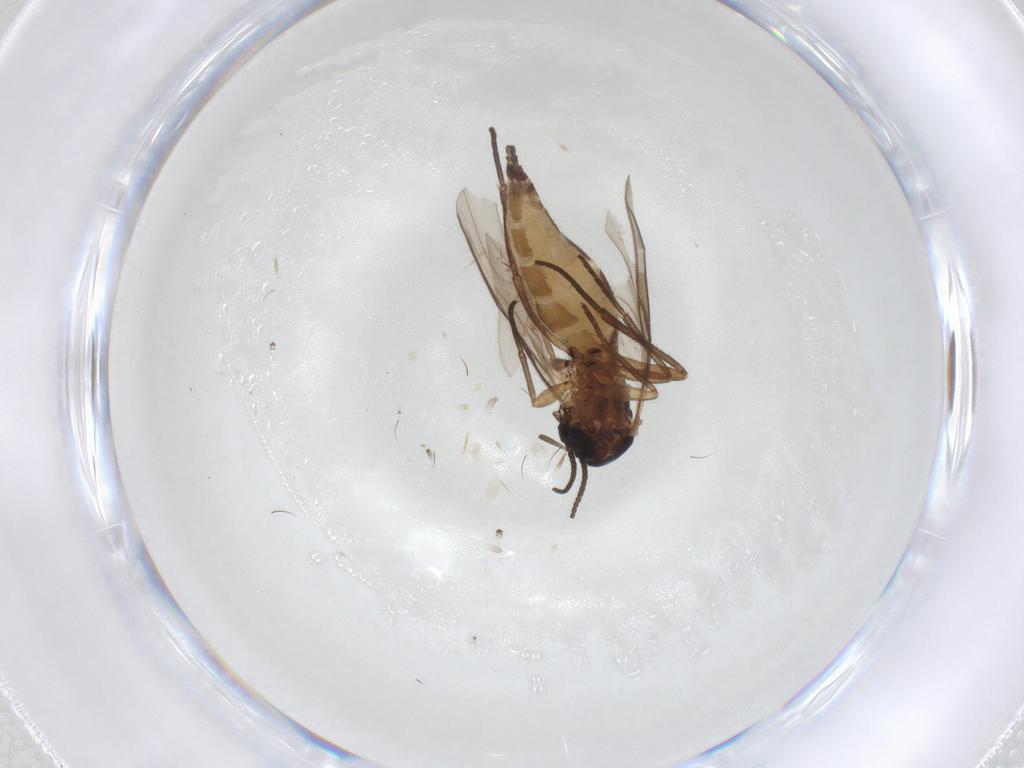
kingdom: Animalia
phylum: Arthropoda
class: Insecta
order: Diptera
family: Sciaridae
